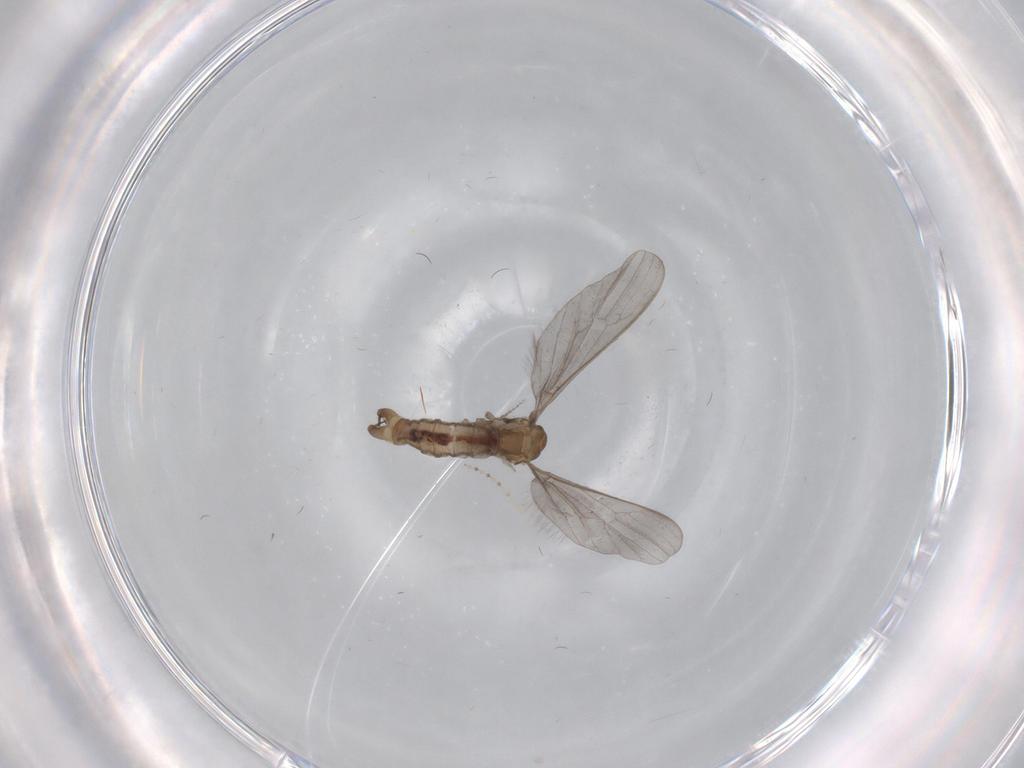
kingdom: Animalia
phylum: Arthropoda
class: Insecta
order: Diptera
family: Limoniidae
